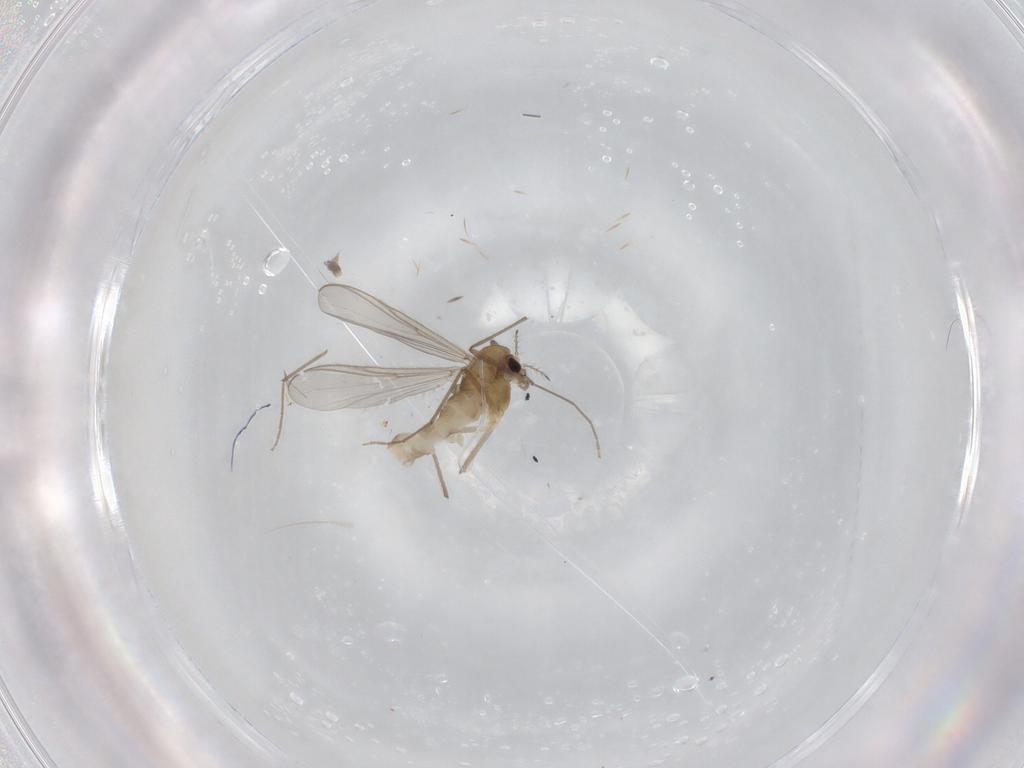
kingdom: Animalia
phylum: Arthropoda
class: Insecta
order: Diptera
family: Chironomidae
